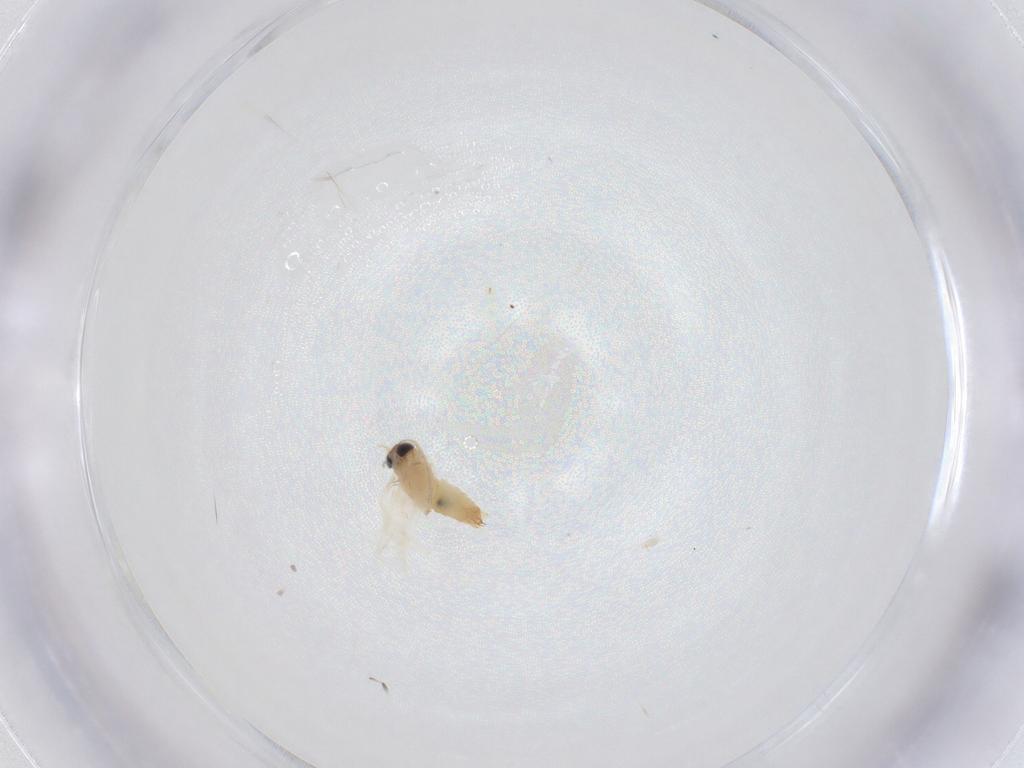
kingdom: Animalia
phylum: Arthropoda
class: Insecta
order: Lepidoptera
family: Crambidae
